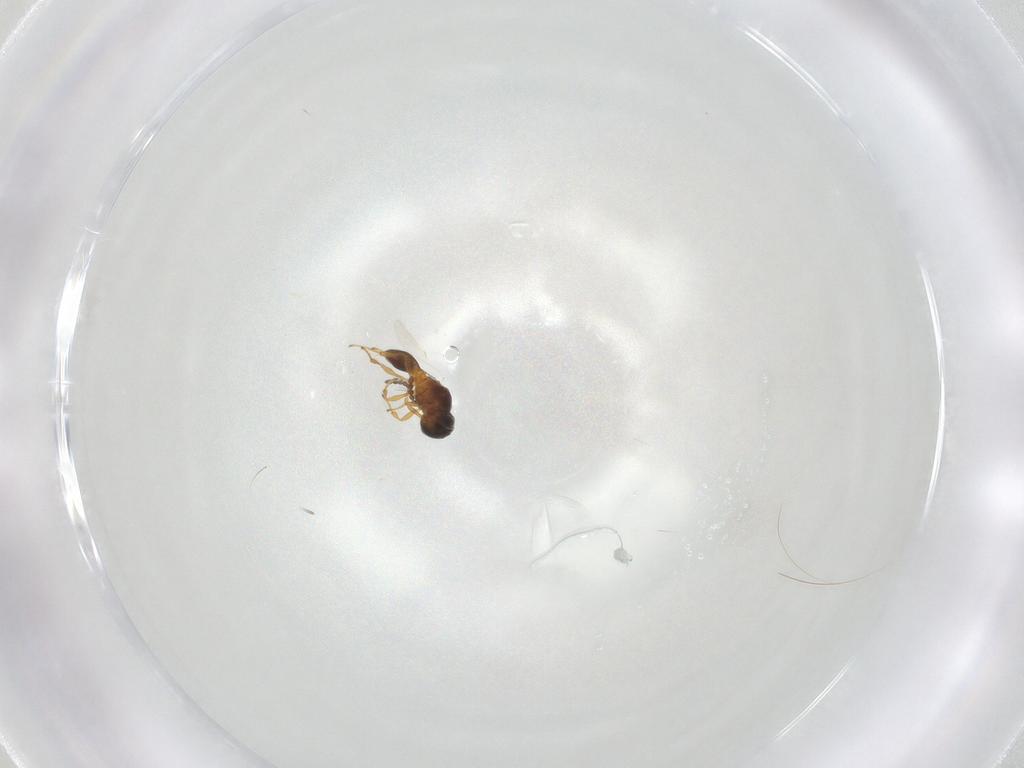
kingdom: Animalia
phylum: Arthropoda
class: Insecta
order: Hymenoptera
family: Platygastridae
